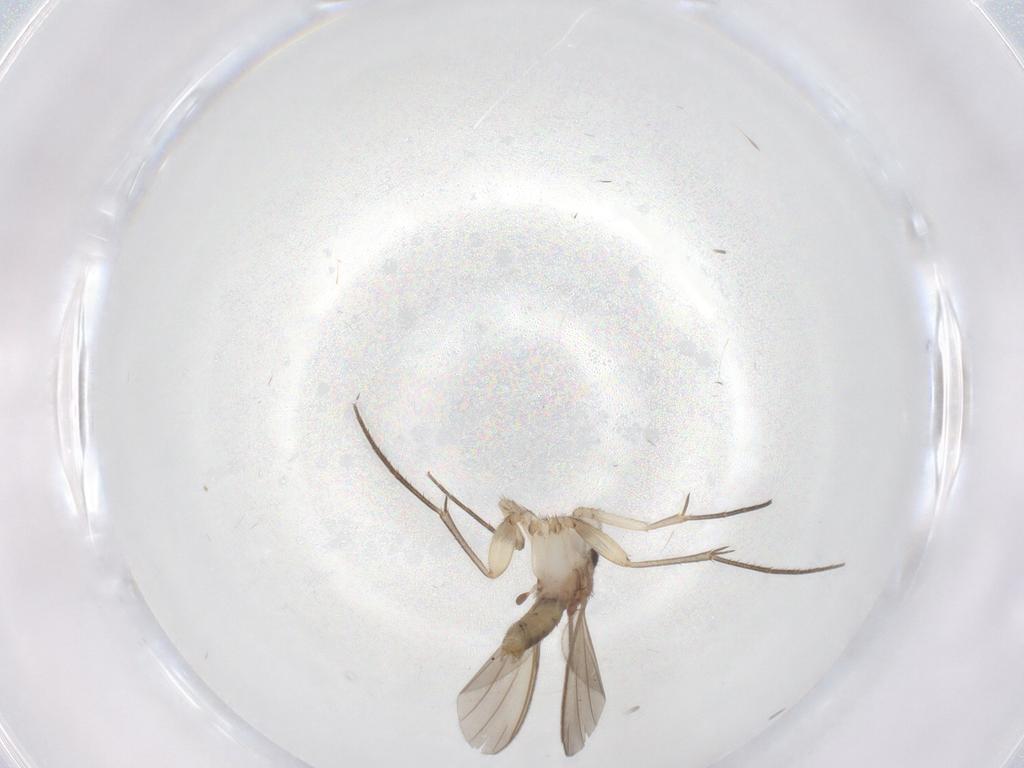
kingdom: Animalia
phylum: Arthropoda
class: Insecta
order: Diptera
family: Mycetophilidae
